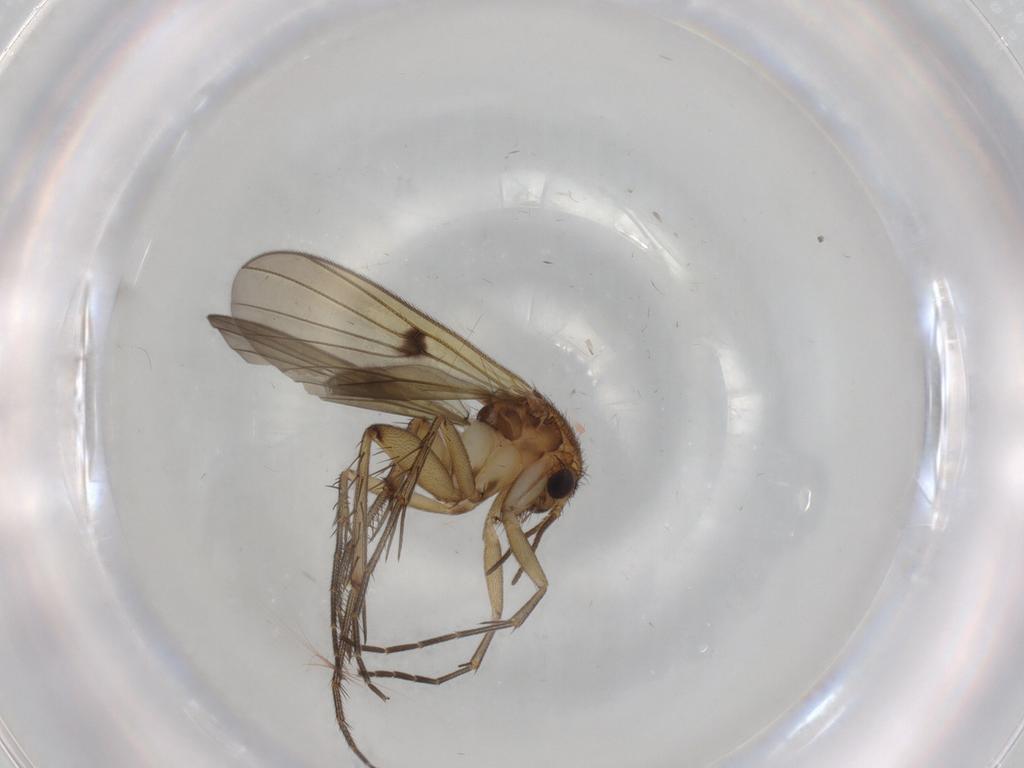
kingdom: Animalia
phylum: Arthropoda
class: Insecta
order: Diptera
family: Mycetophilidae
